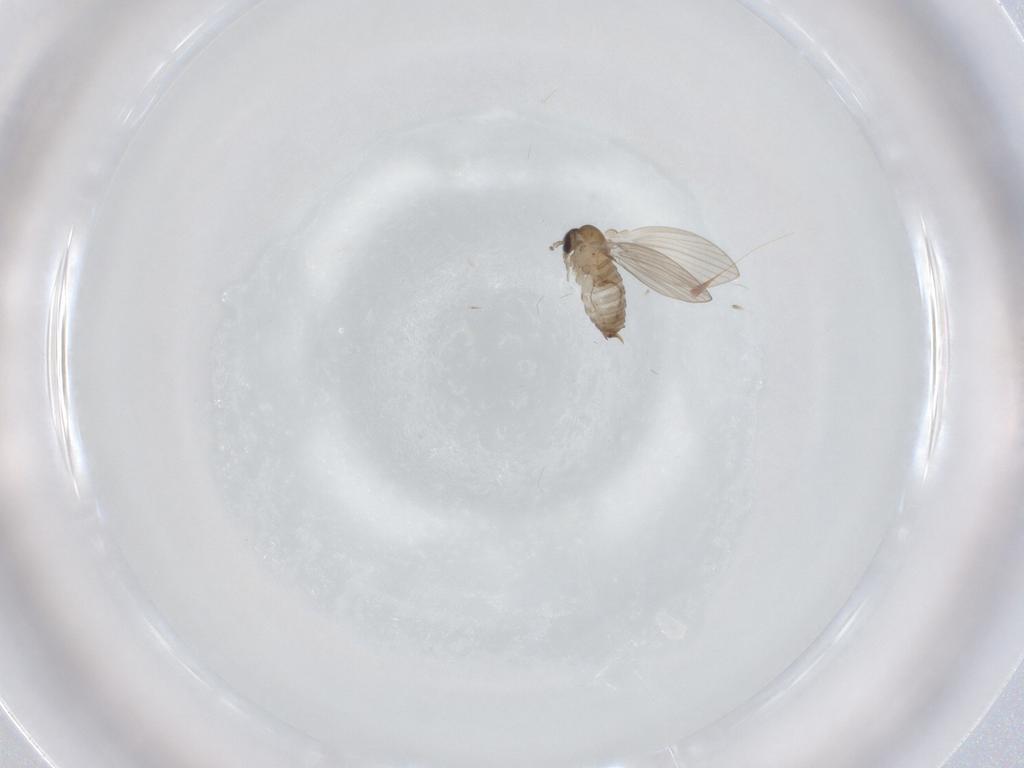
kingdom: Animalia
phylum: Arthropoda
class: Insecta
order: Diptera
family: Psychodidae
